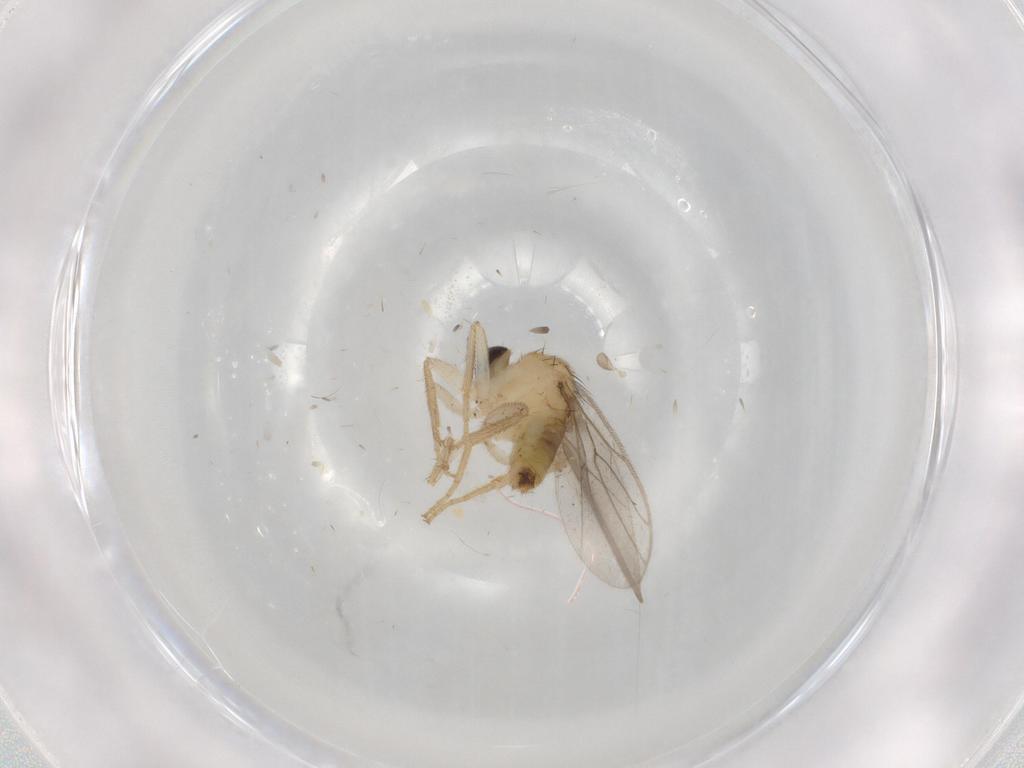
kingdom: Animalia
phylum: Arthropoda
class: Insecta
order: Diptera
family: Hybotidae
